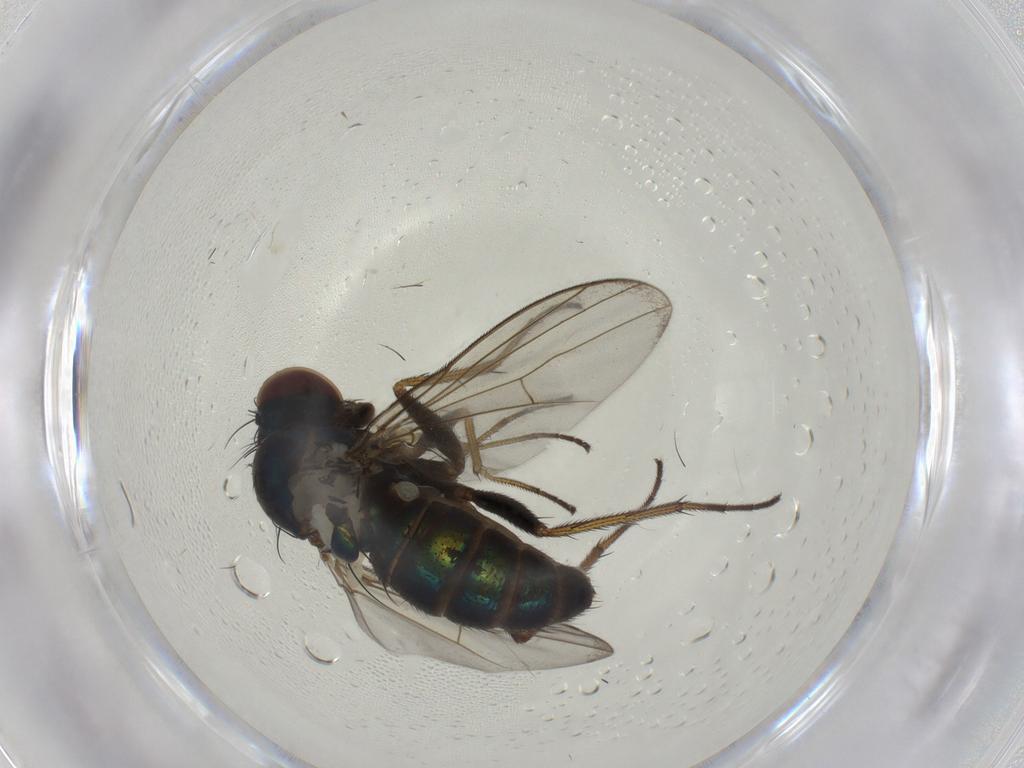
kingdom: Animalia
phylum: Arthropoda
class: Insecta
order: Diptera
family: Dolichopodidae
